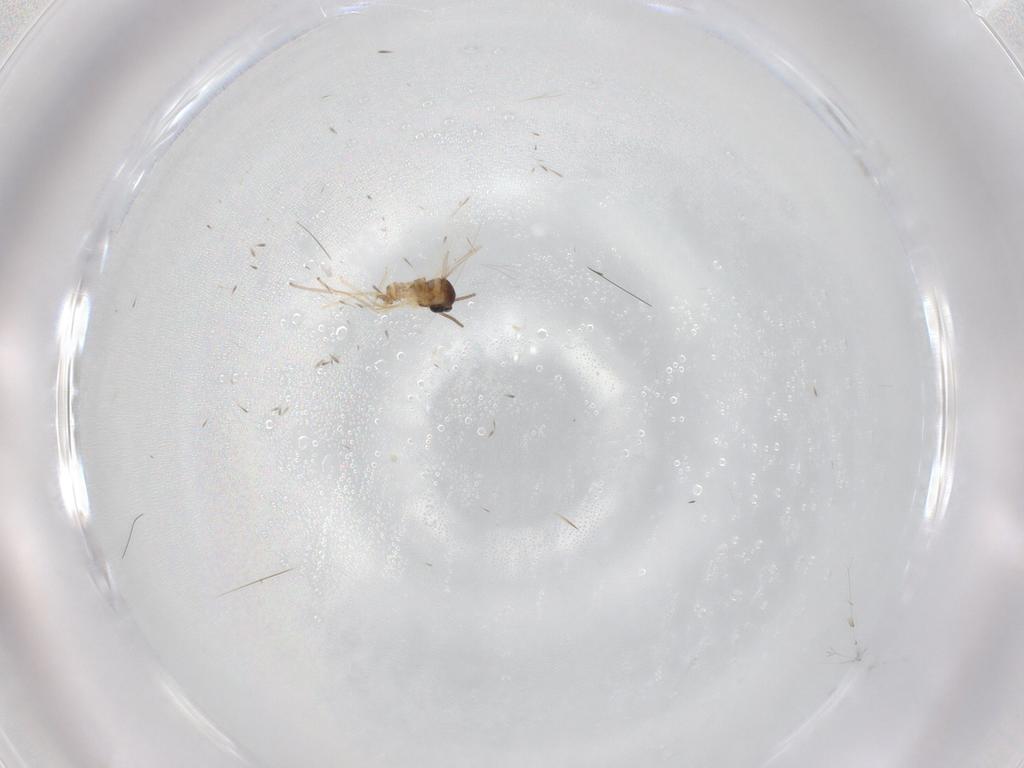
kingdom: Animalia
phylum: Arthropoda
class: Insecta
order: Diptera
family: Cecidomyiidae
